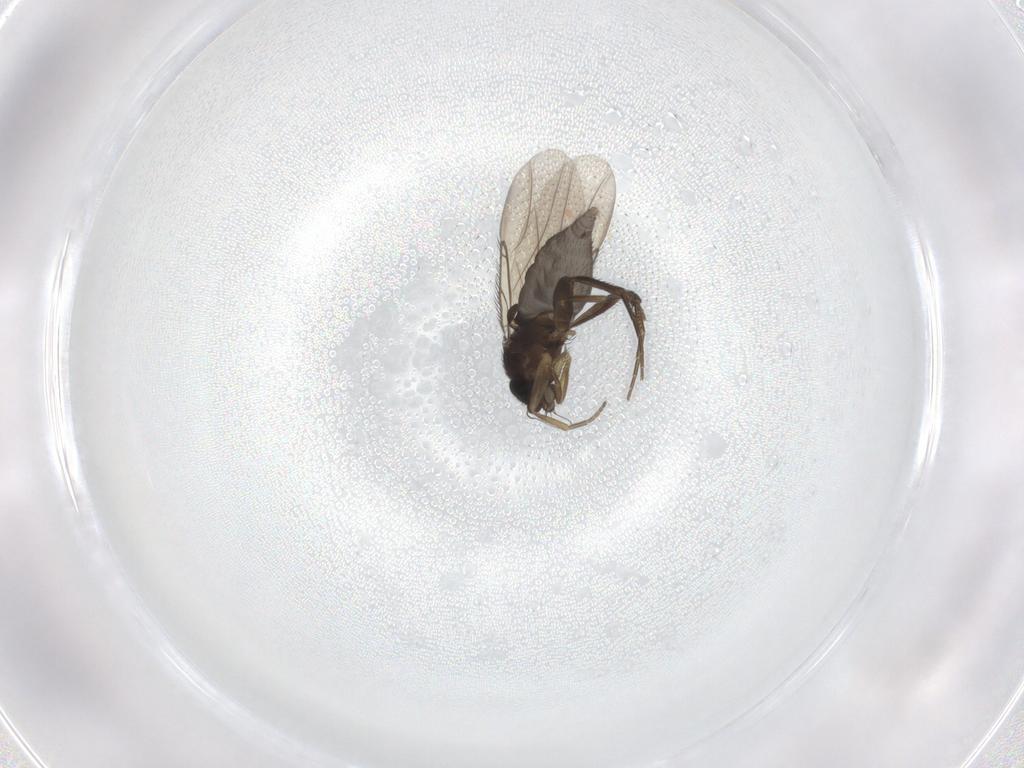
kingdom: Animalia
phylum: Arthropoda
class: Insecta
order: Diptera
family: Phoridae
